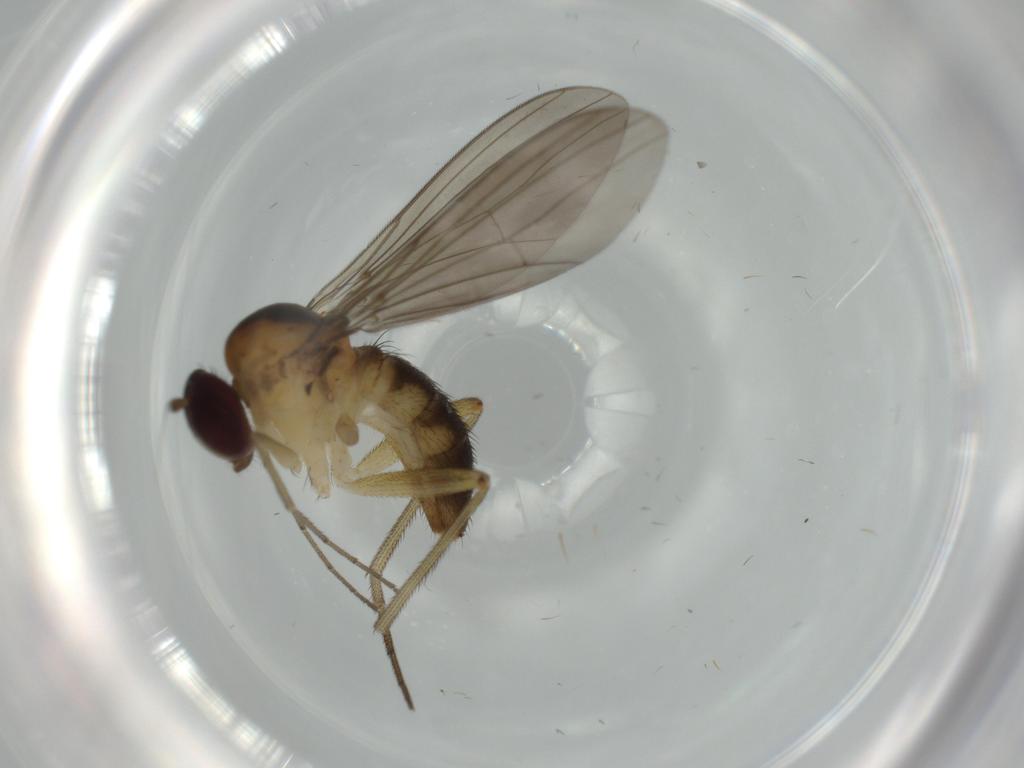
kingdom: Animalia
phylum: Arthropoda
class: Insecta
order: Diptera
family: Dolichopodidae
